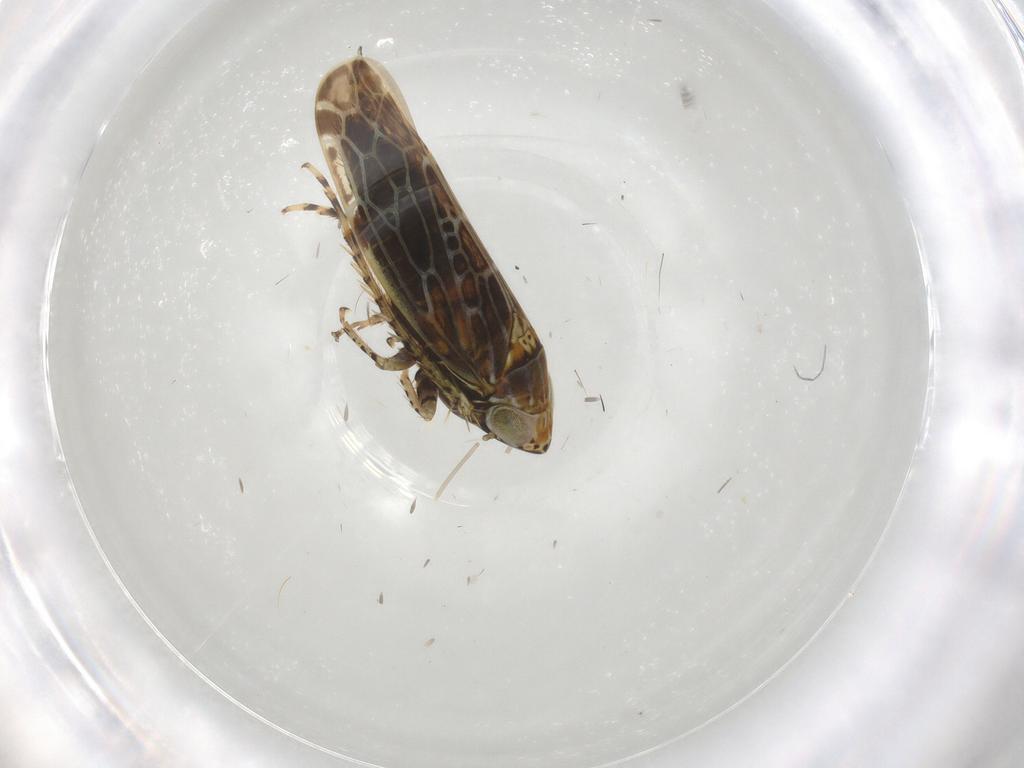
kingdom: Animalia
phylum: Arthropoda
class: Insecta
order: Hemiptera
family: Cicadellidae
